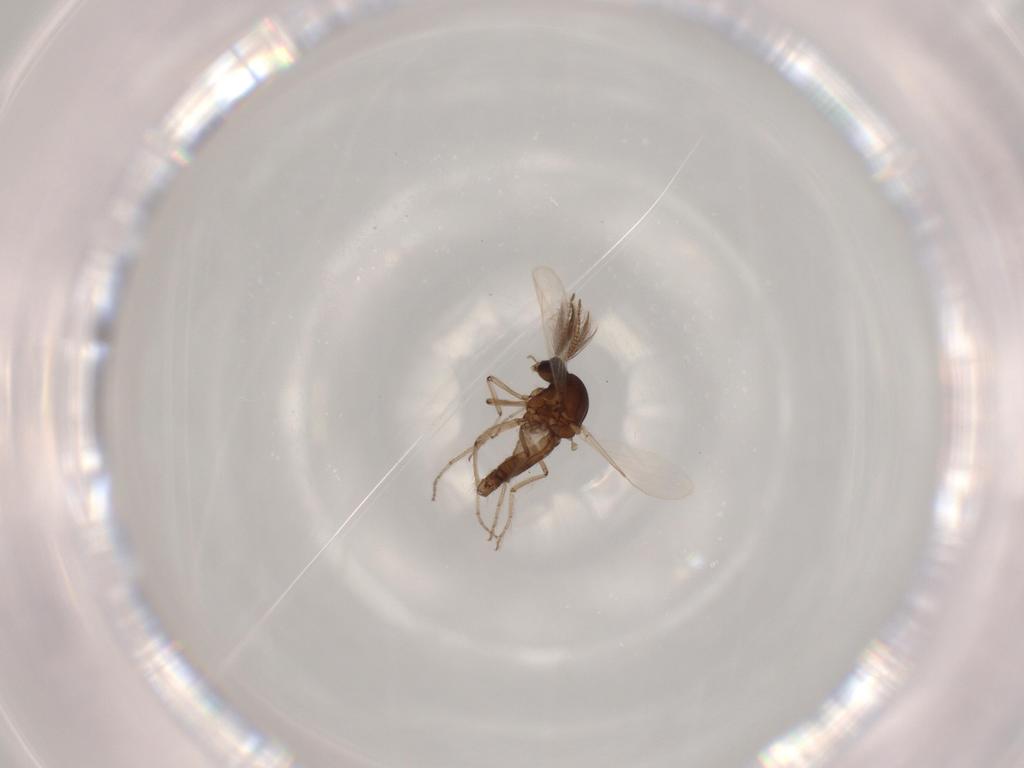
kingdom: Animalia
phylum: Arthropoda
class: Insecta
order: Diptera
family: Chironomidae
